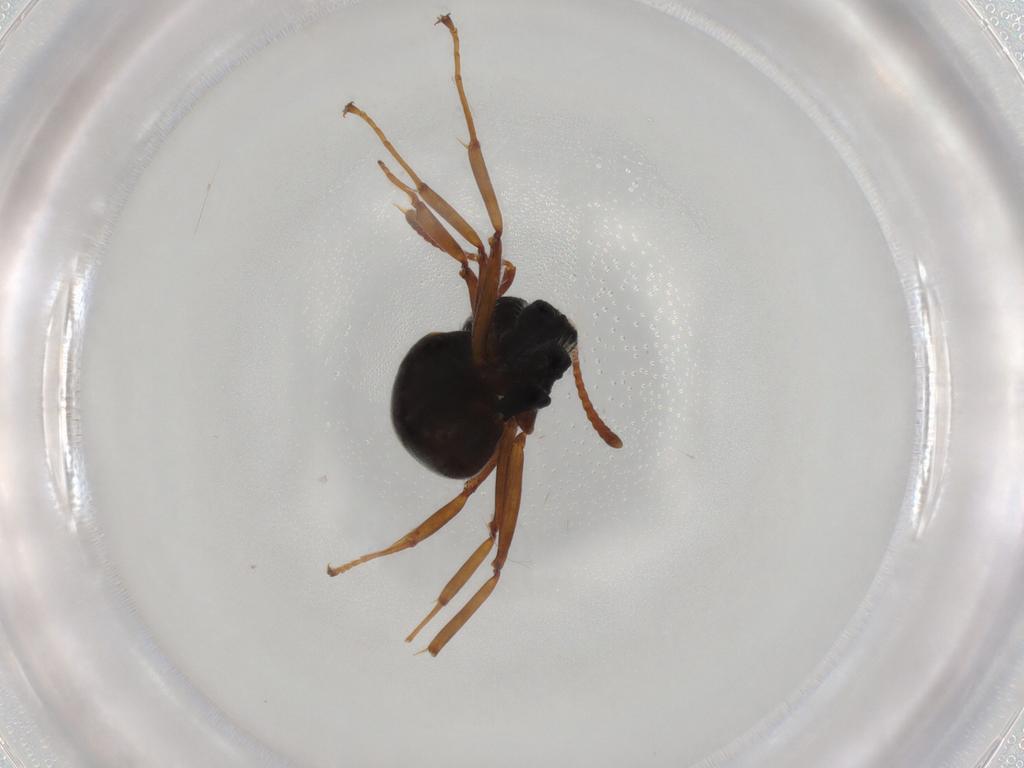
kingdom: Animalia
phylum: Arthropoda
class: Insecta
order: Hymenoptera
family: Formicidae
